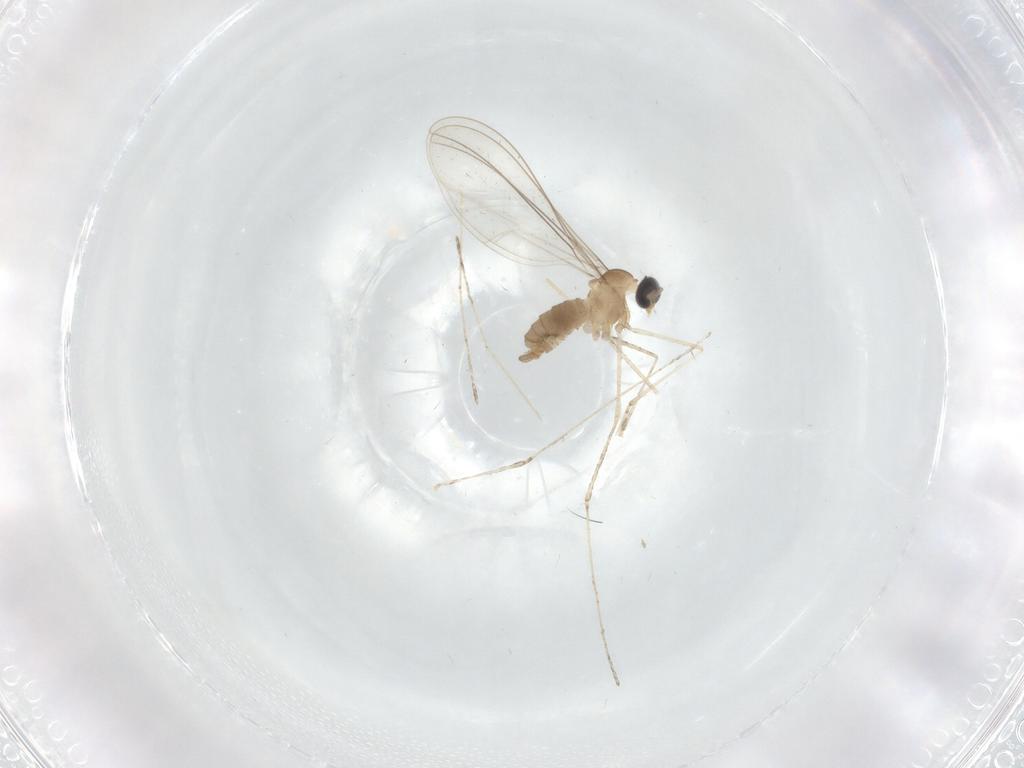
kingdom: Animalia
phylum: Arthropoda
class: Insecta
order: Diptera
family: Cecidomyiidae
